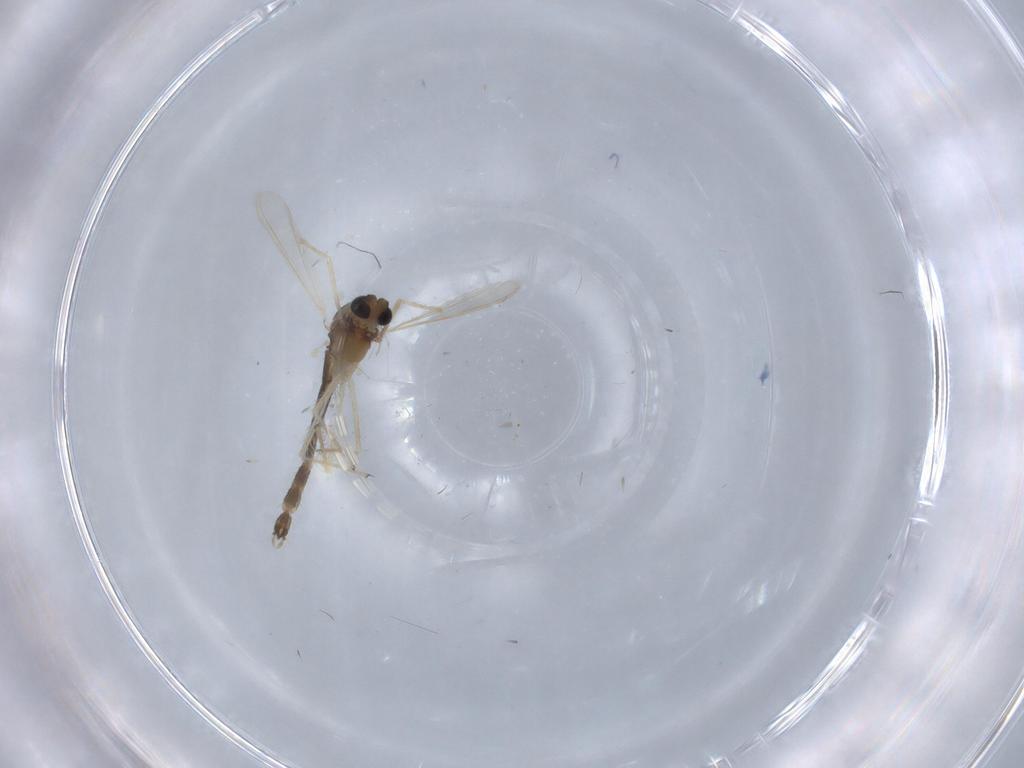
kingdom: Animalia
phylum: Arthropoda
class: Insecta
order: Diptera
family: Chironomidae
